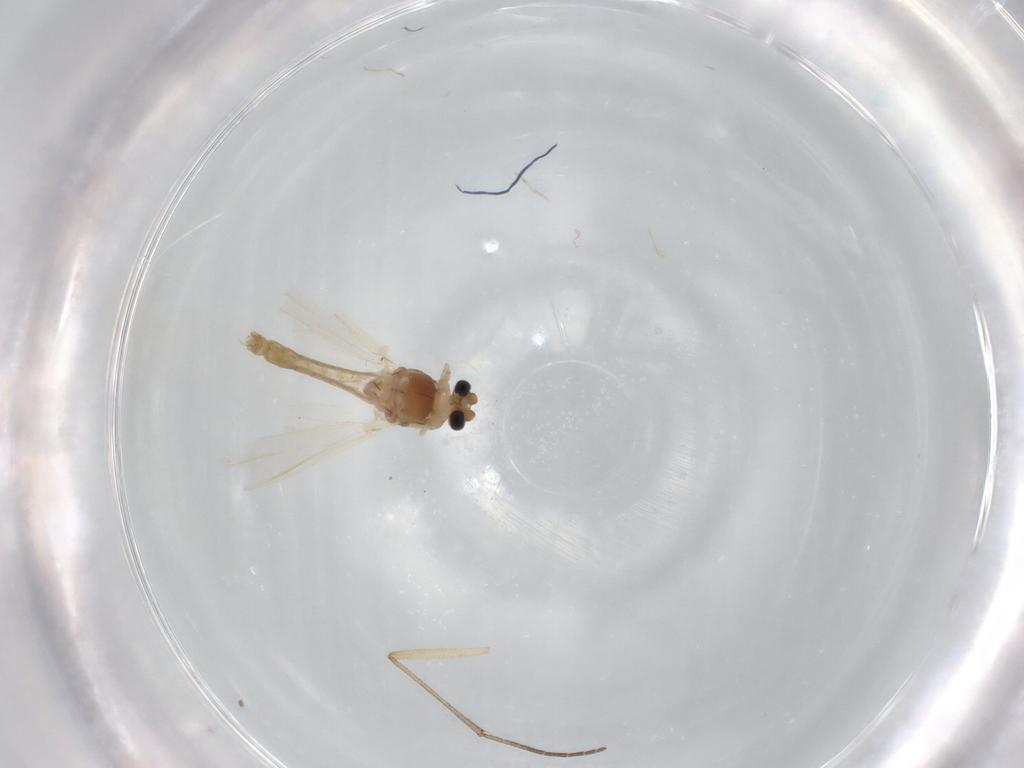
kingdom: Animalia
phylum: Arthropoda
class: Insecta
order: Diptera
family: Chironomidae
